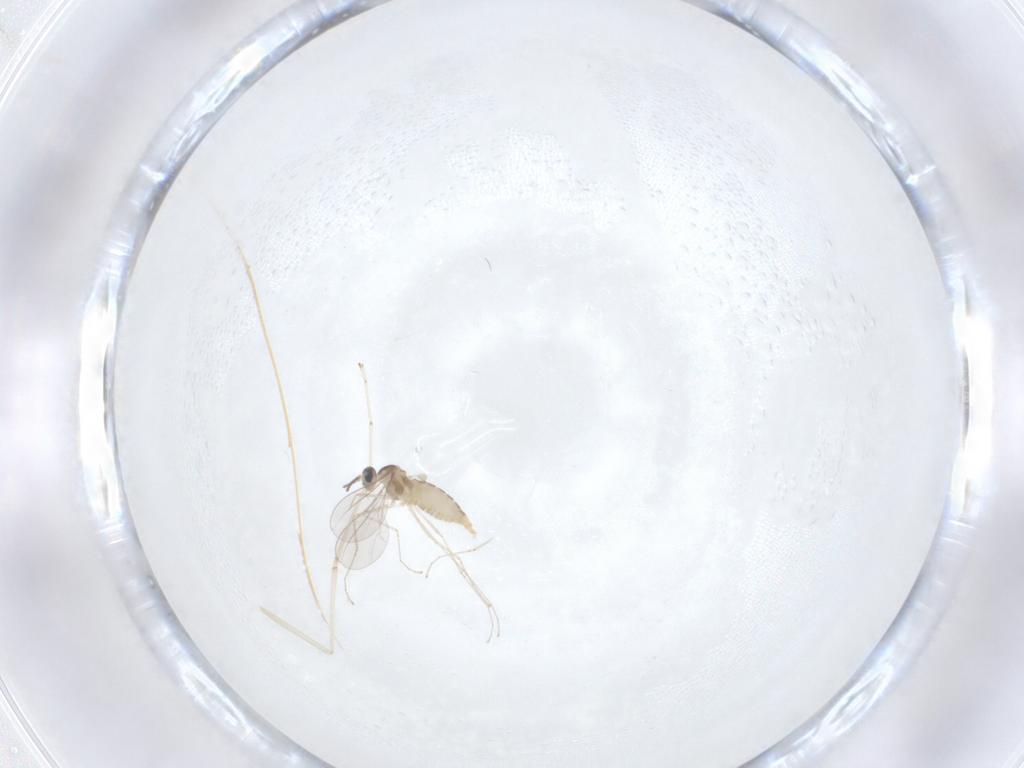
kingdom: Animalia
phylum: Arthropoda
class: Insecta
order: Diptera
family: Cecidomyiidae
